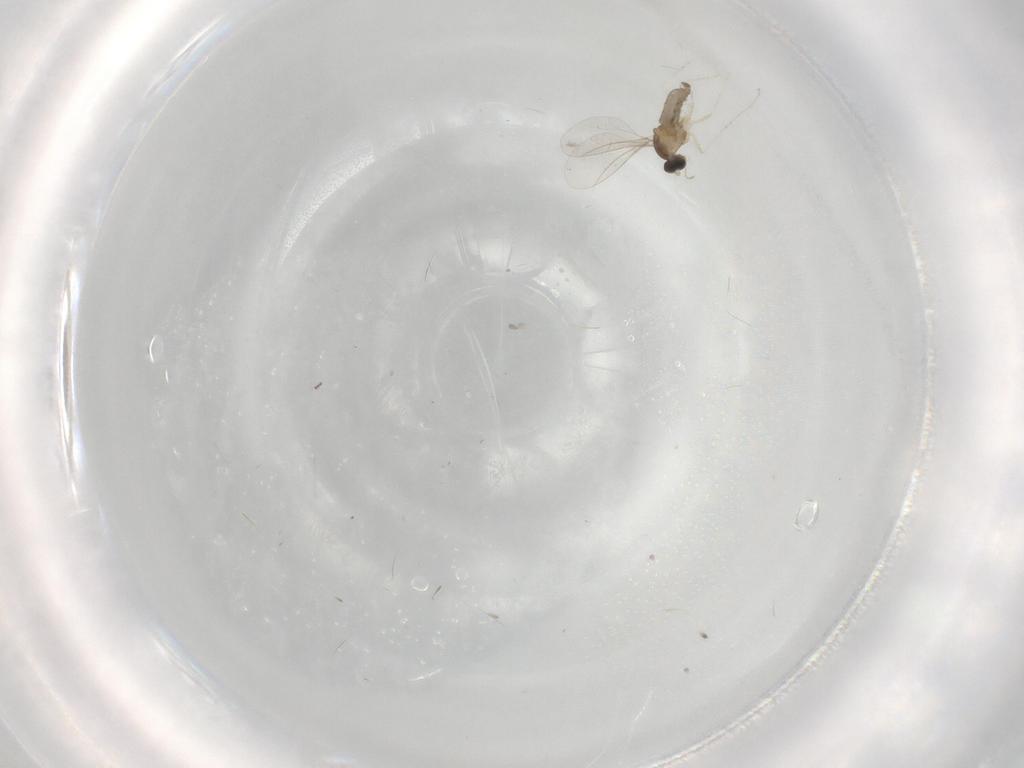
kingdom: Animalia
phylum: Arthropoda
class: Insecta
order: Diptera
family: Cecidomyiidae
